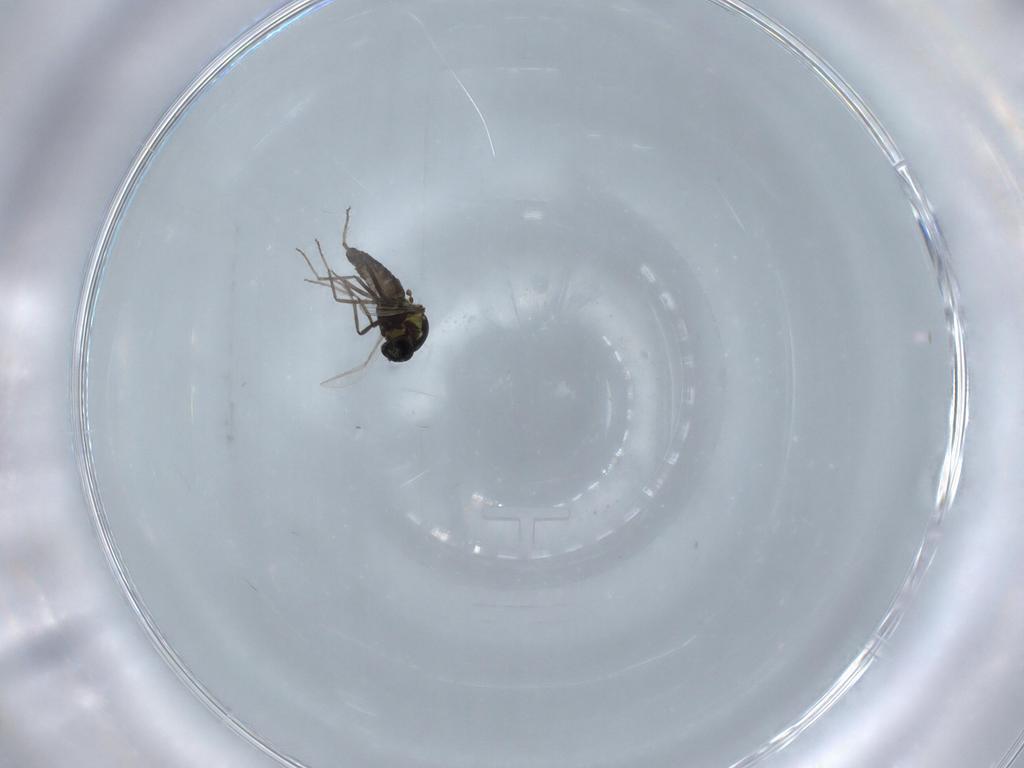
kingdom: Animalia
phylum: Arthropoda
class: Insecta
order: Diptera
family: Ceratopogonidae
